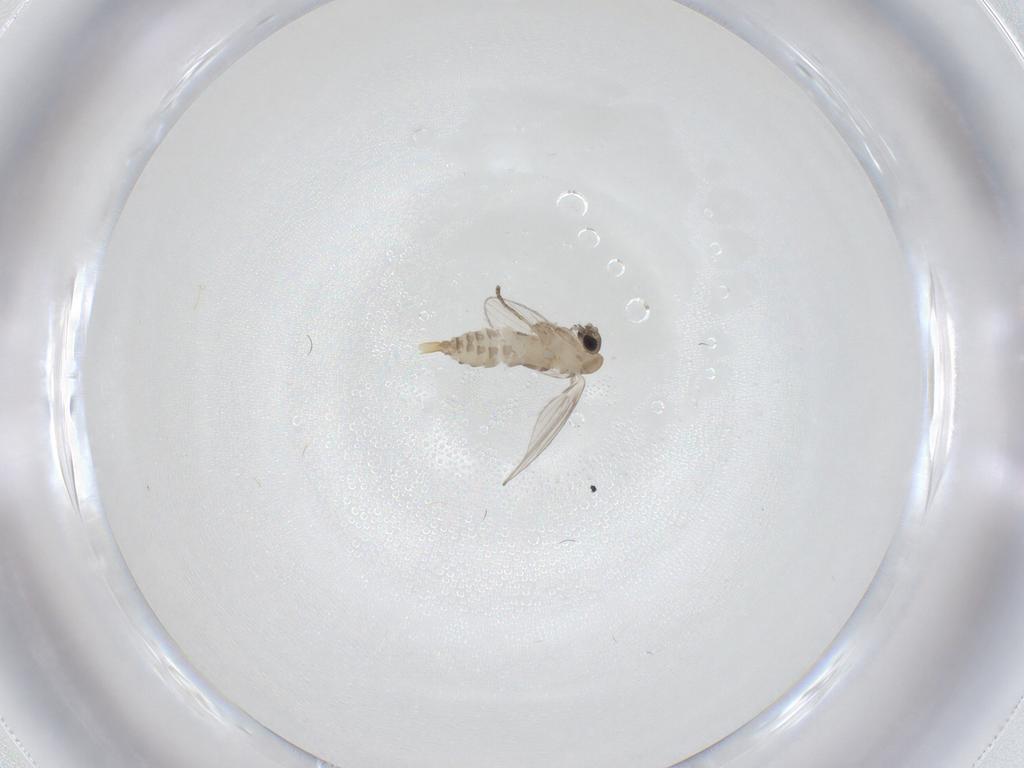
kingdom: Animalia
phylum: Arthropoda
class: Insecta
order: Diptera
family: Psychodidae
